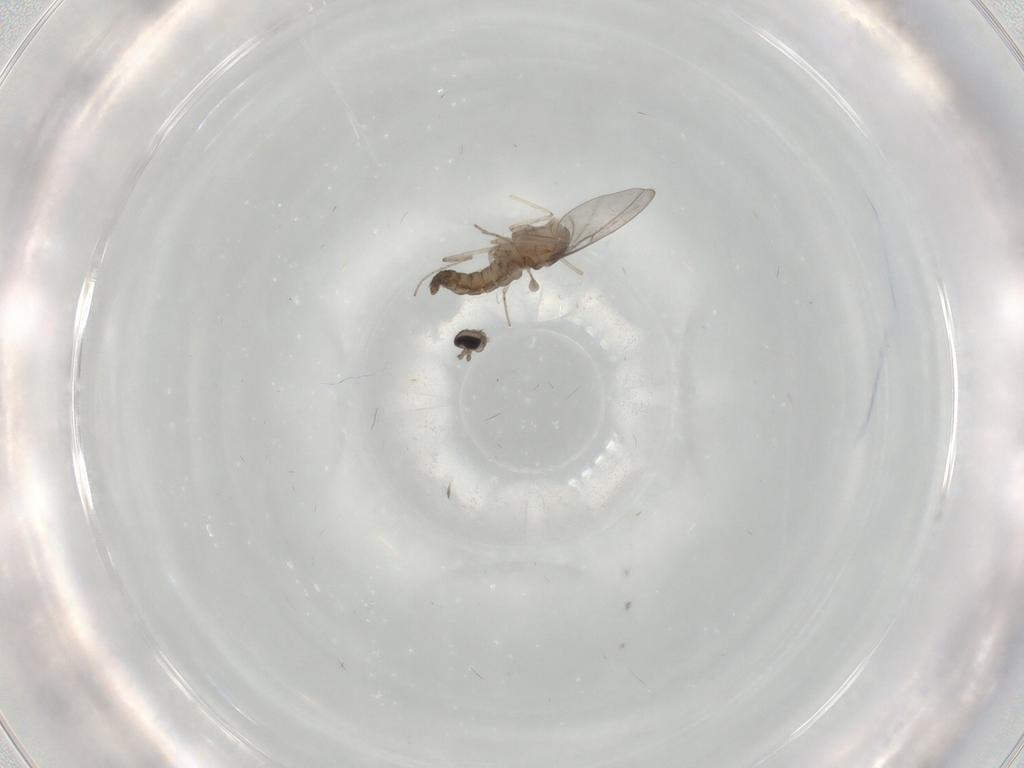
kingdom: Animalia
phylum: Arthropoda
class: Insecta
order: Diptera
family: Cecidomyiidae
